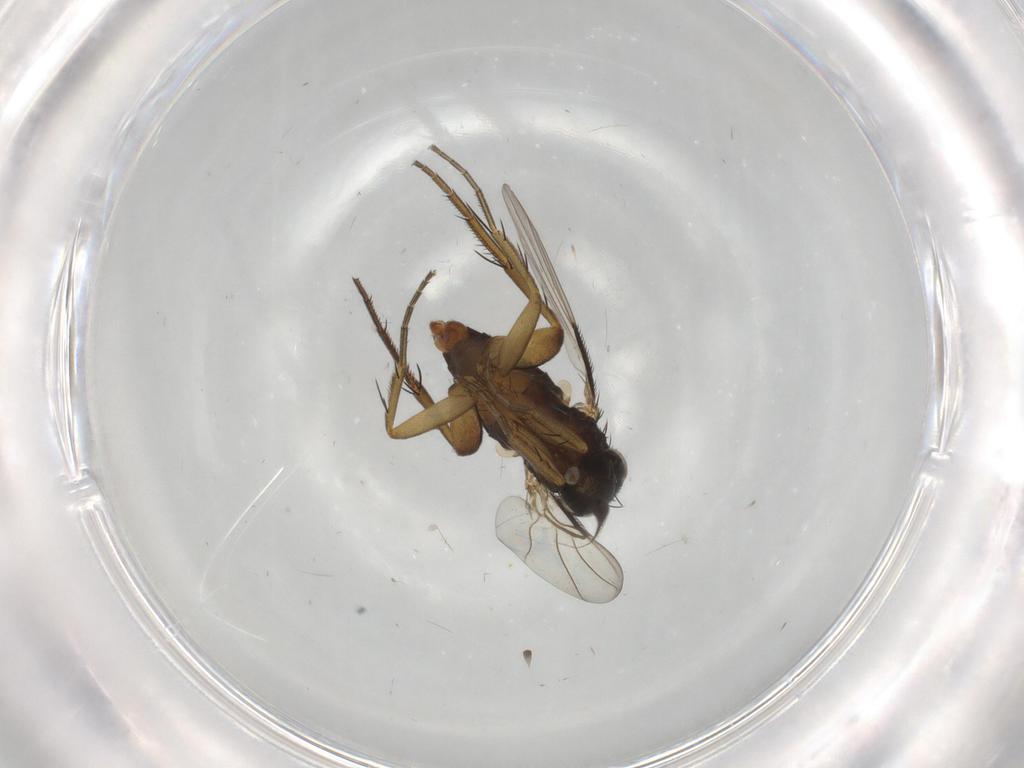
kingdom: Animalia
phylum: Arthropoda
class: Insecta
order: Diptera
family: Phoridae
